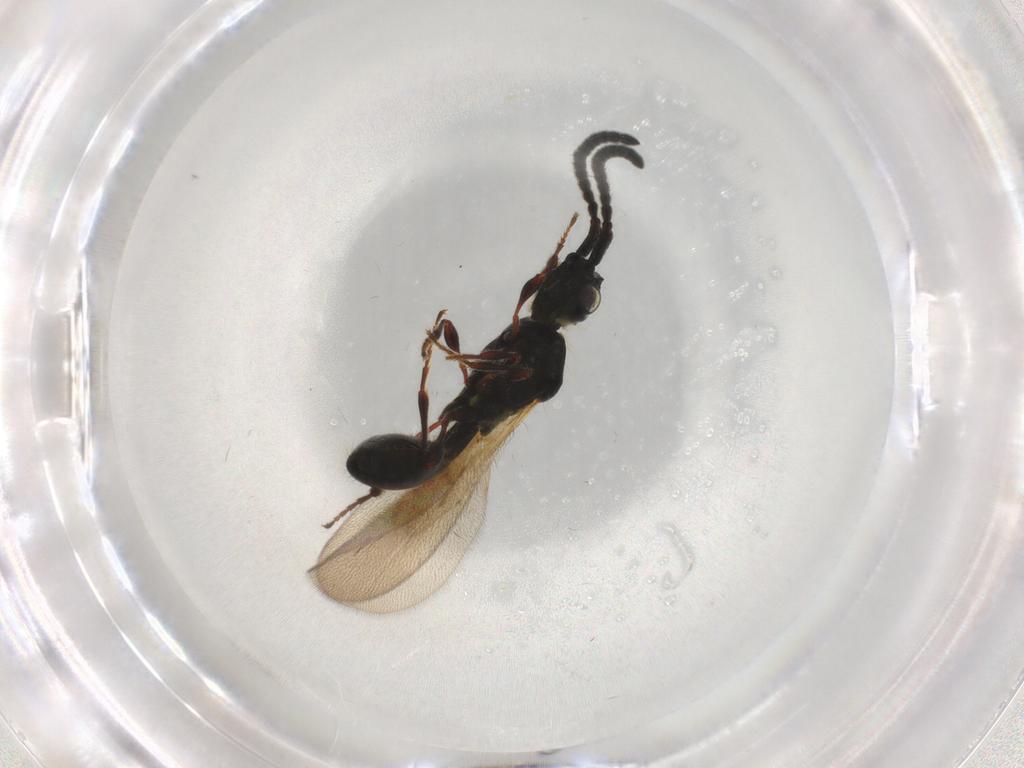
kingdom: Animalia
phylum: Arthropoda
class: Insecta
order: Hymenoptera
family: Diapriidae
